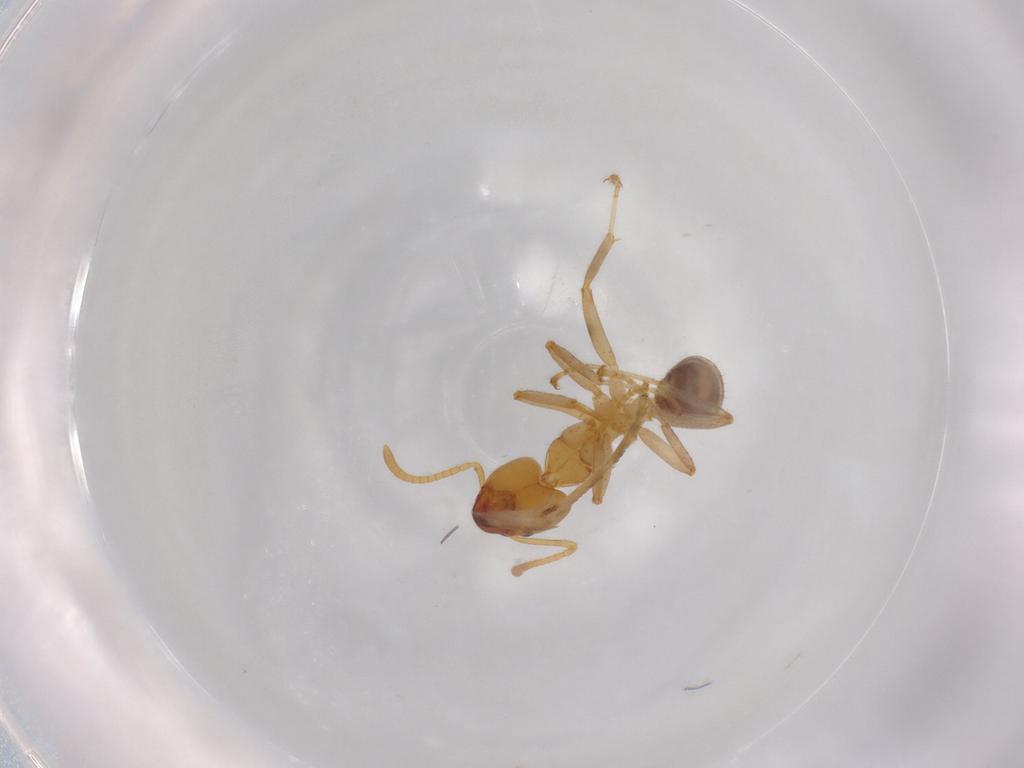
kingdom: Animalia
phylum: Arthropoda
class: Insecta
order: Hymenoptera
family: Formicidae
